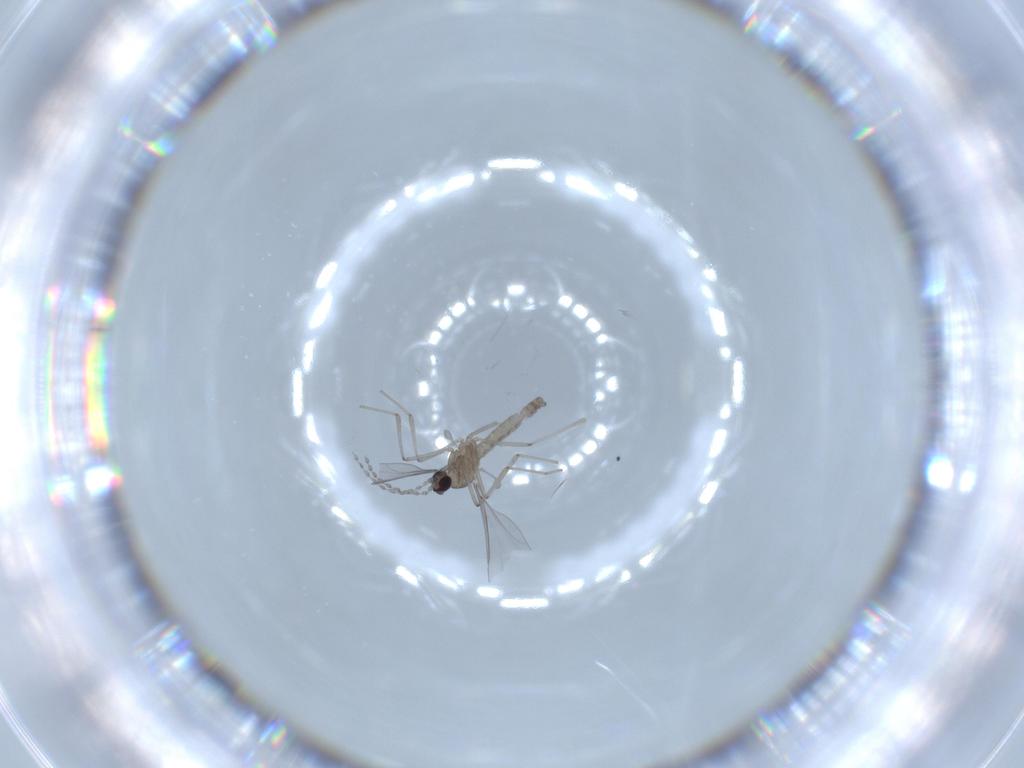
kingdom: Animalia
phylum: Arthropoda
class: Insecta
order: Diptera
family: Cecidomyiidae
